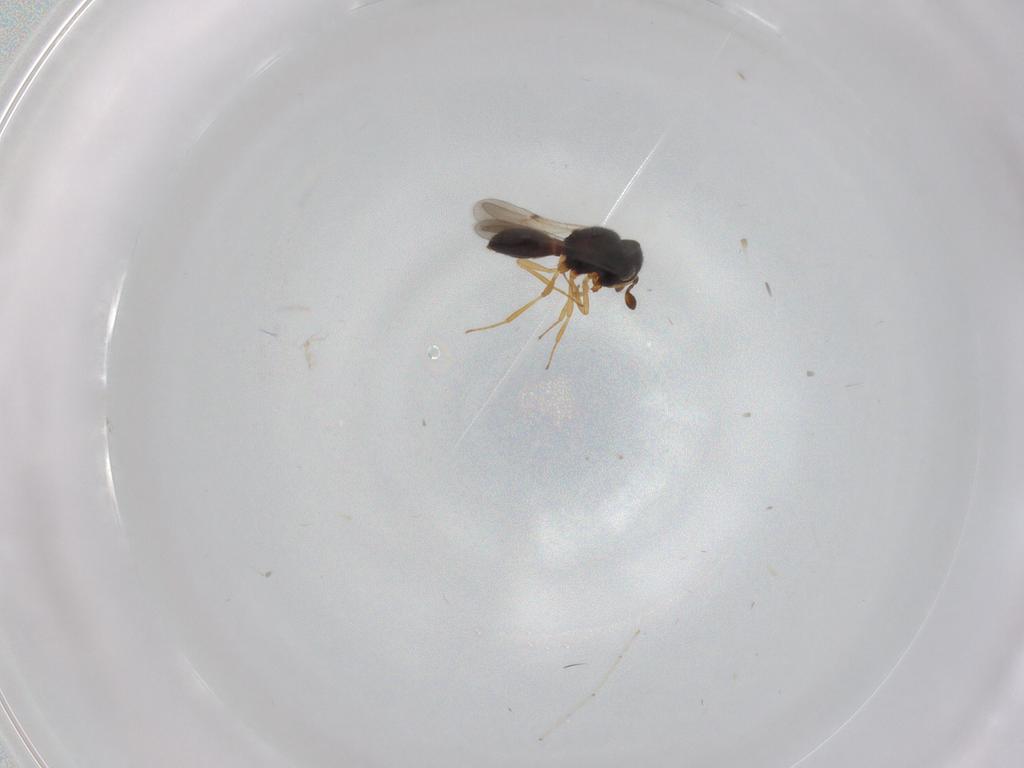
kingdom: Animalia
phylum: Arthropoda
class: Insecta
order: Hymenoptera
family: Scelionidae
